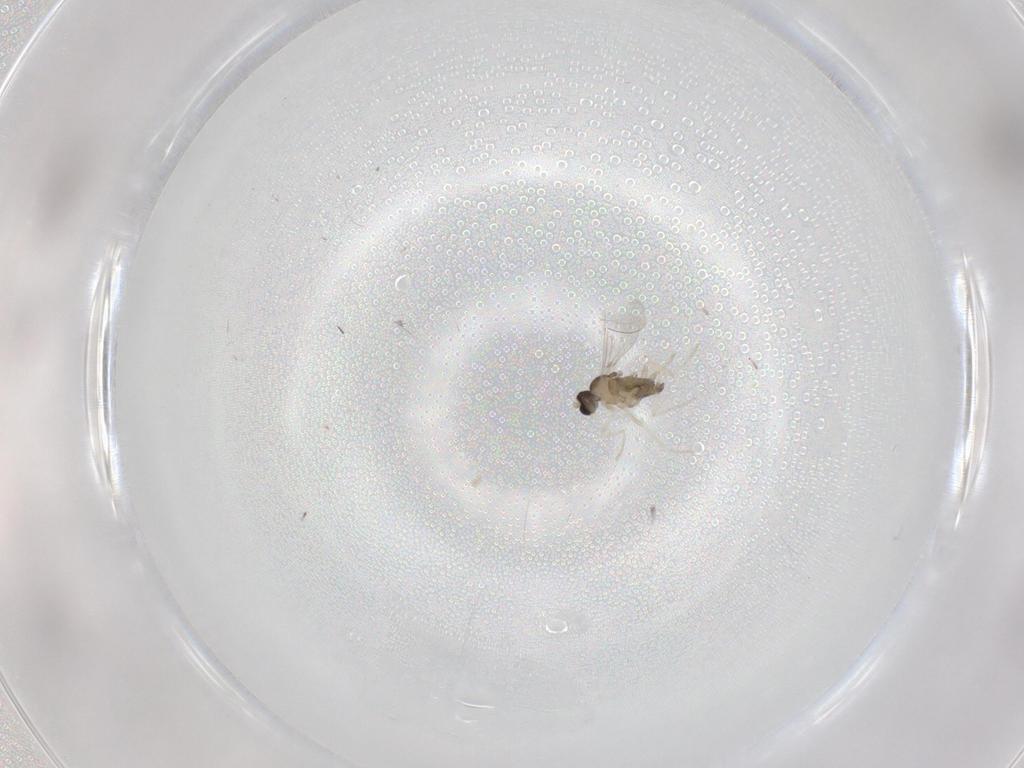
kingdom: Animalia
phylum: Arthropoda
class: Insecta
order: Diptera
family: Cecidomyiidae
